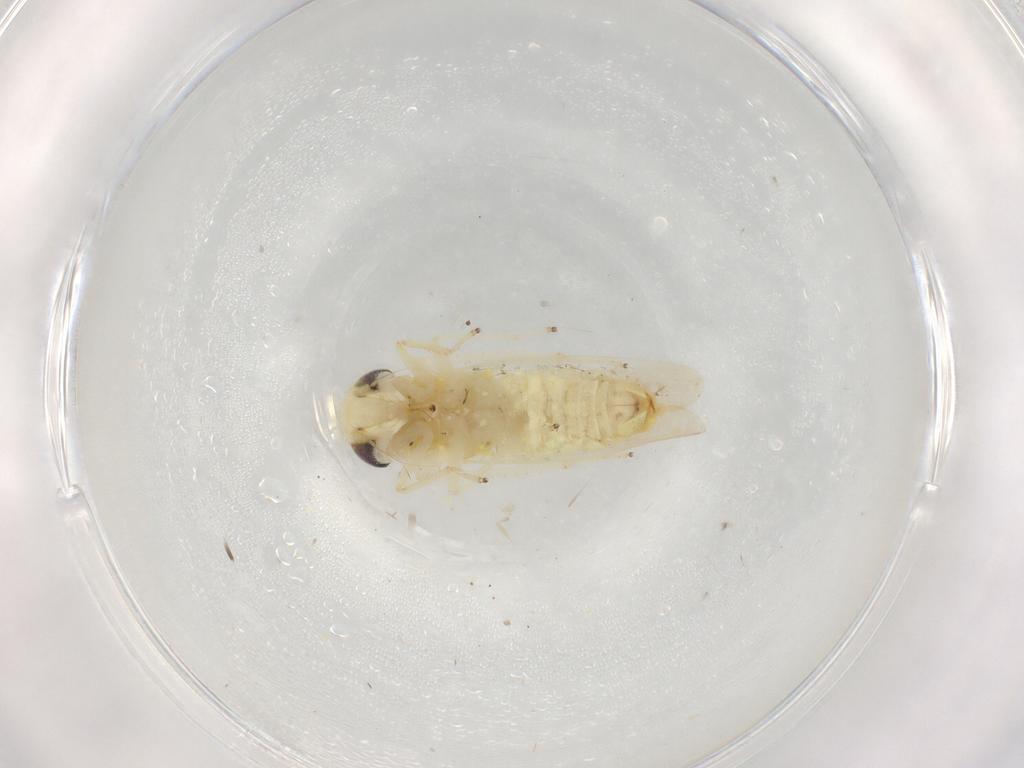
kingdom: Animalia
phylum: Arthropoda
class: Insecta
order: Hemiptera
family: Cicadellidae
